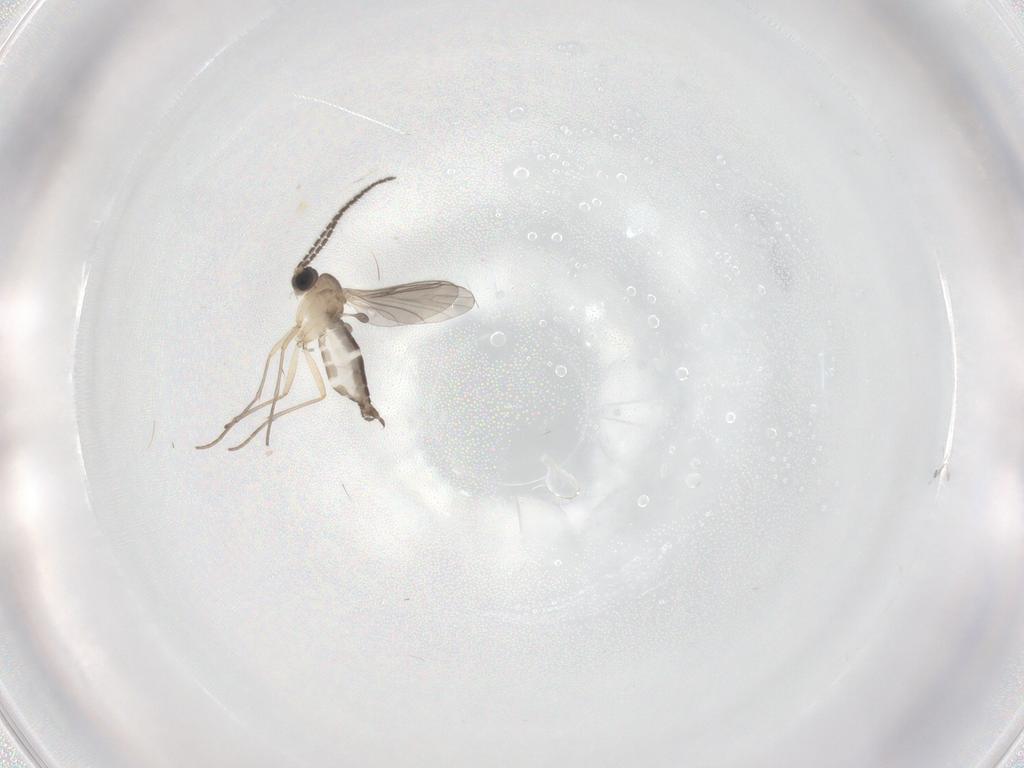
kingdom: Animalia
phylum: Arthropoda
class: Insecta
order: Diptera
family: Sciaridae
